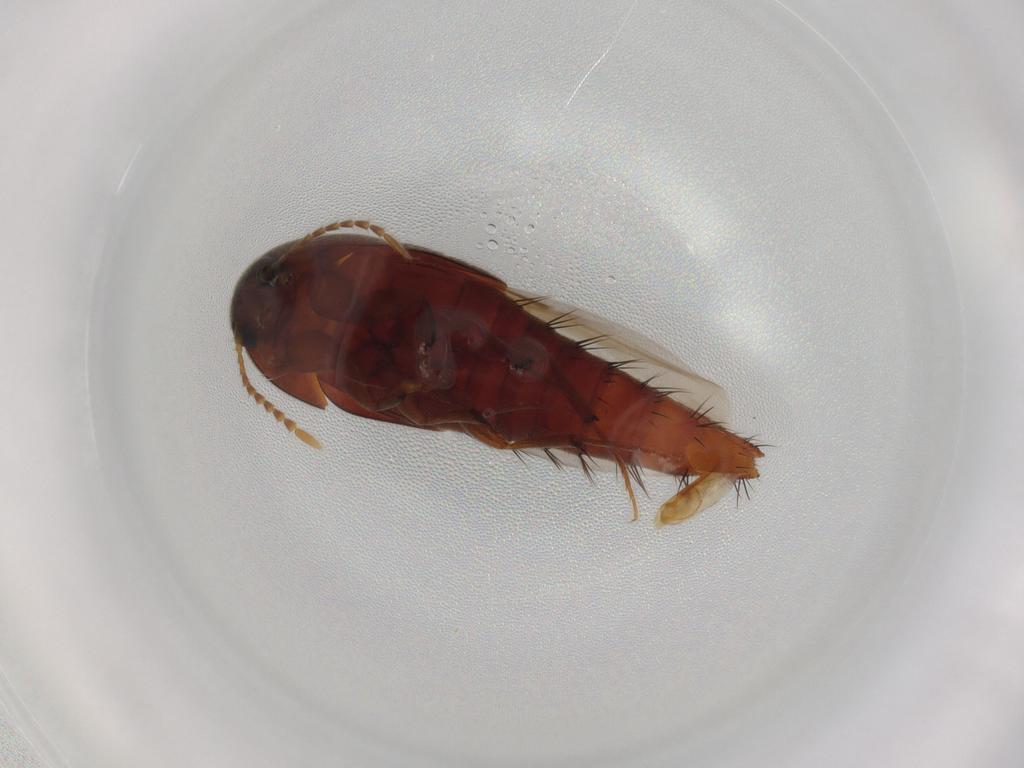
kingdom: Animalia
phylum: Arthropoda
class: Insecta
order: Coleoptera
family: Staphylinidae
